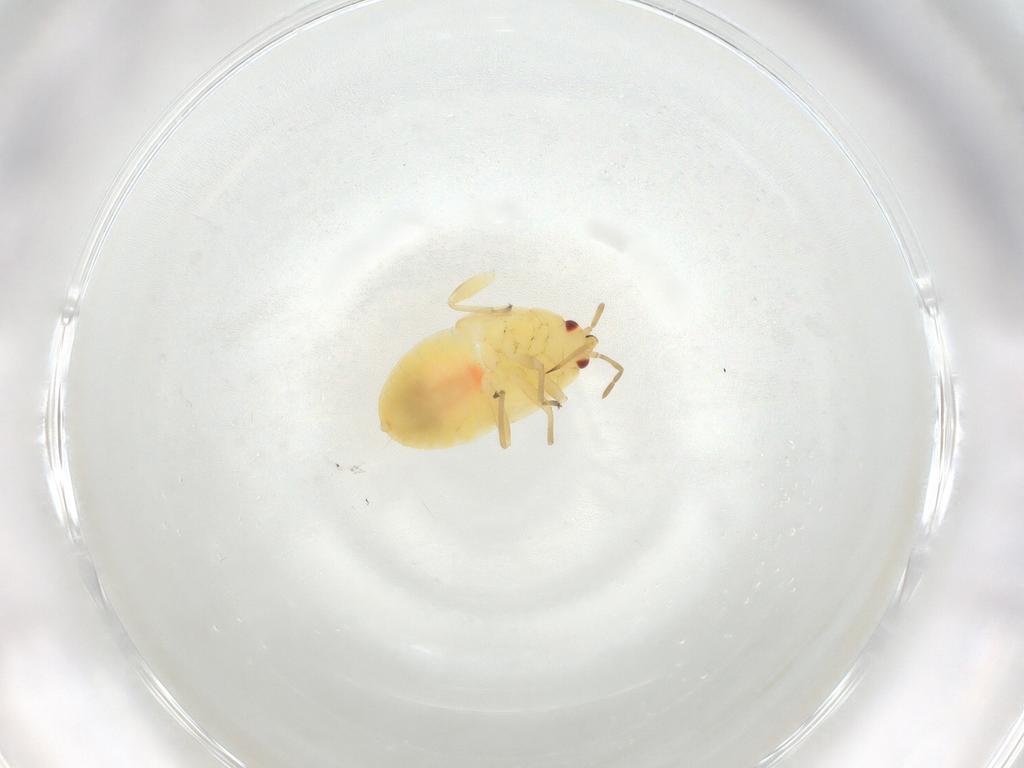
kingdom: Animalia
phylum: Arthropoda
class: Insecta
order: Hemiptera
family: Anthocoridae
